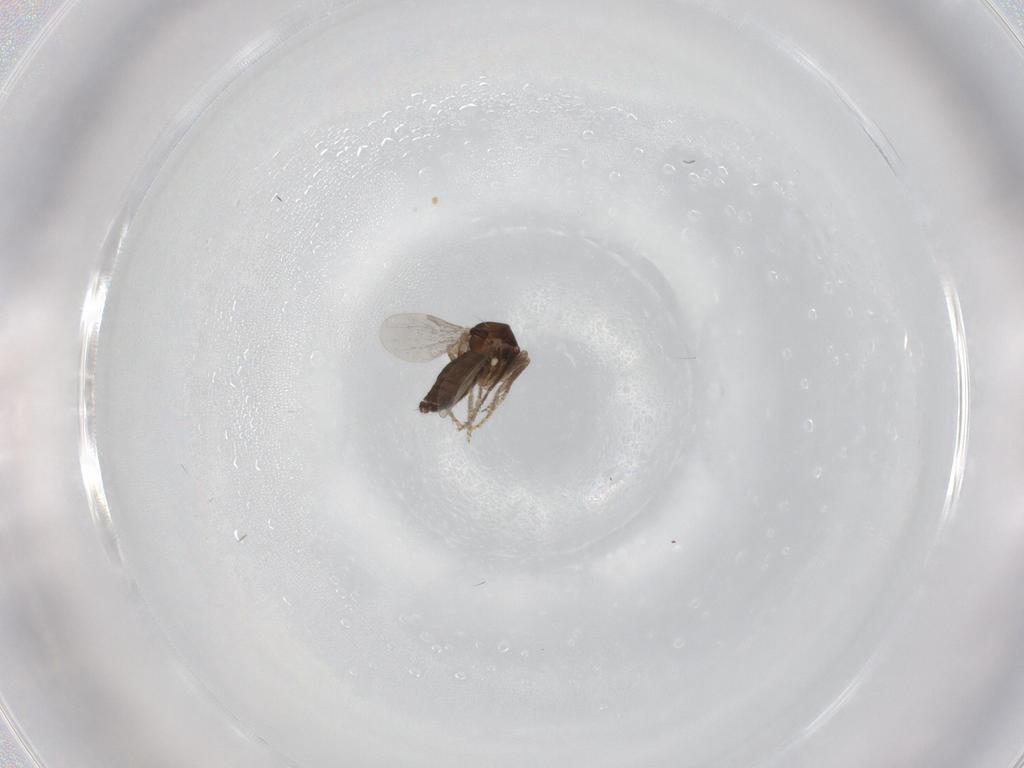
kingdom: Animalia
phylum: Arthropoda
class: Insecta
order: Diptera
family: Ceratopogonidae
